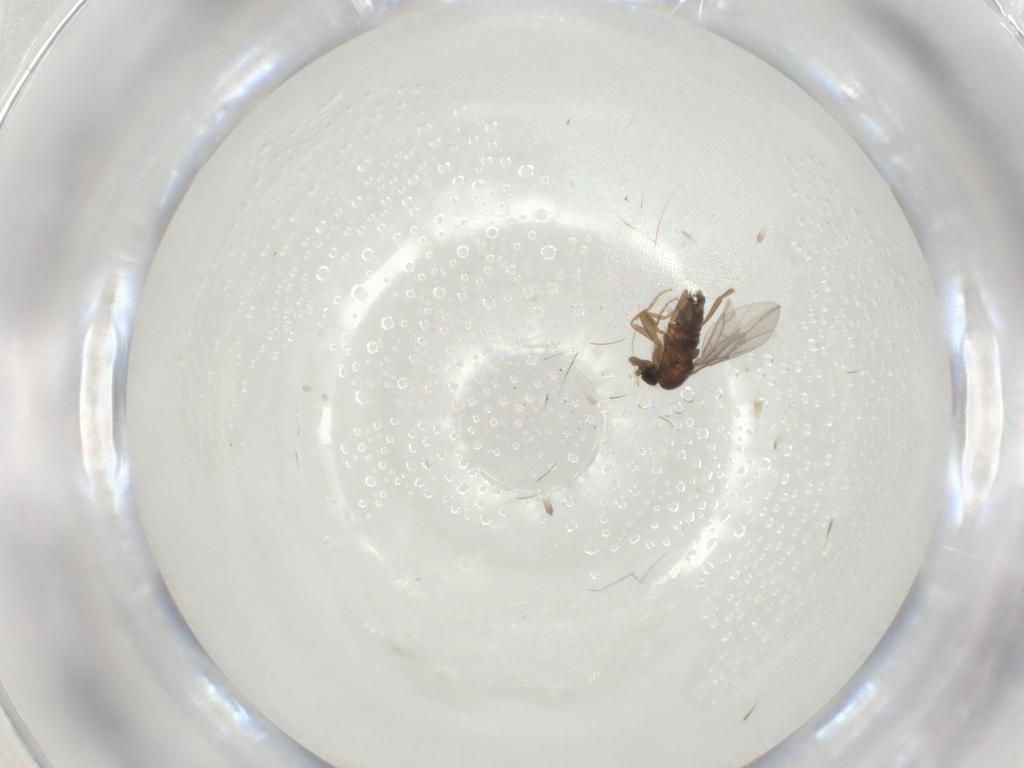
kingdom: Animalia
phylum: Arthropoda
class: Insecta
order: Diptera
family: Phoridae
